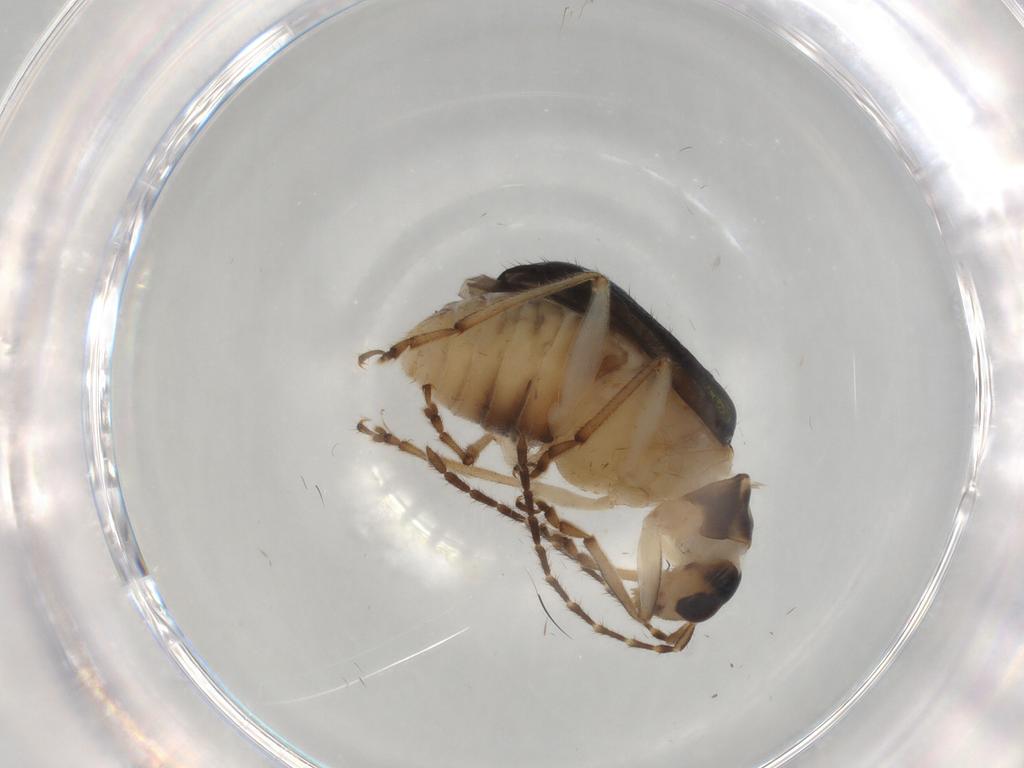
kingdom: Animalia
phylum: Arthropoda
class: Insecta
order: Coleoptera
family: Chrysomelidae
